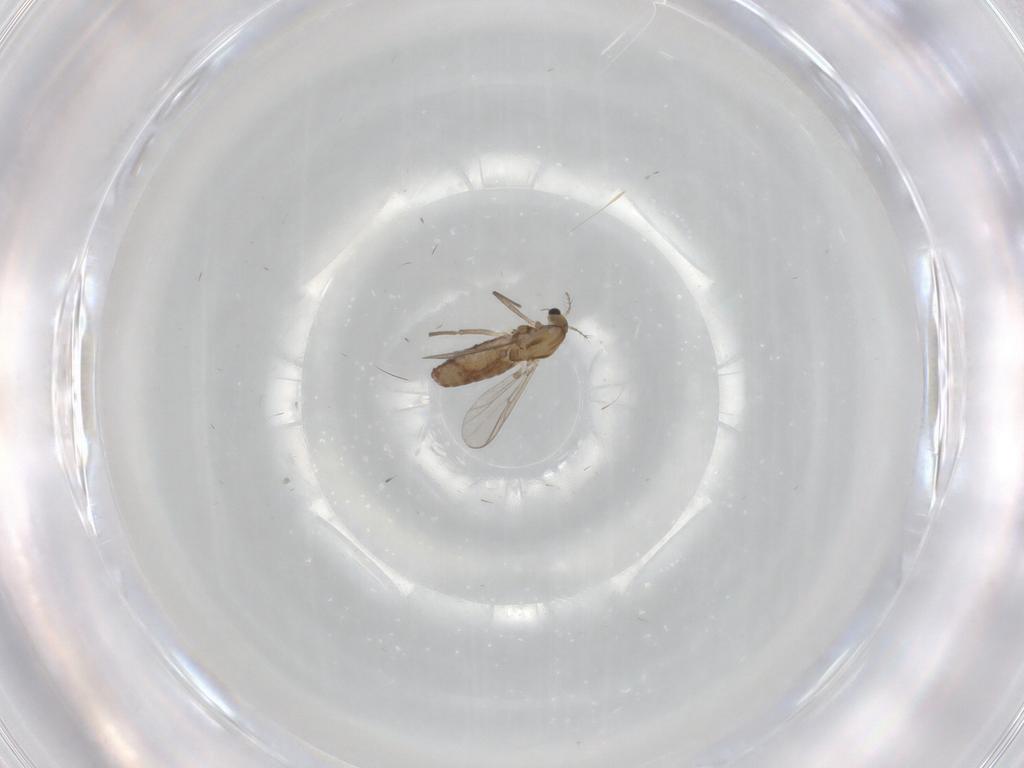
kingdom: Animalia
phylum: Arthropoda
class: Insecta
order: Diptera
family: Chironomidae
